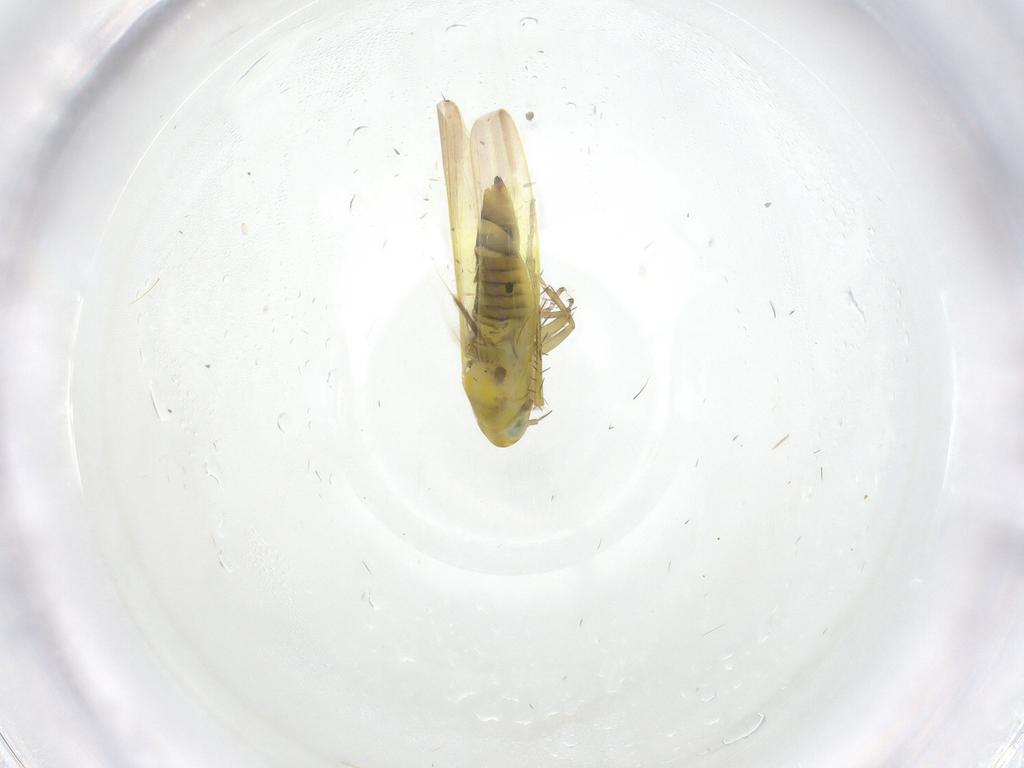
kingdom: Animalia
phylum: Arthropoda
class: Insecta
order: Hemiptera
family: Cicadellidae
